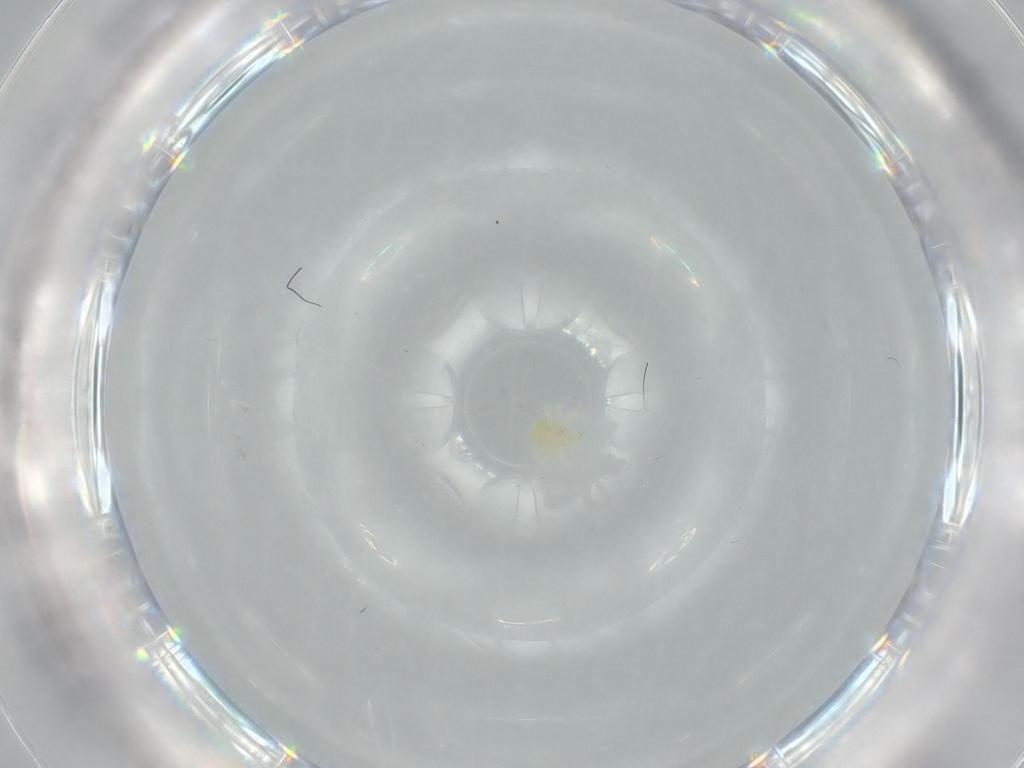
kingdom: Animalia
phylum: Arthropoda
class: Arachnida
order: Trombidiformes
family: Anystidae
